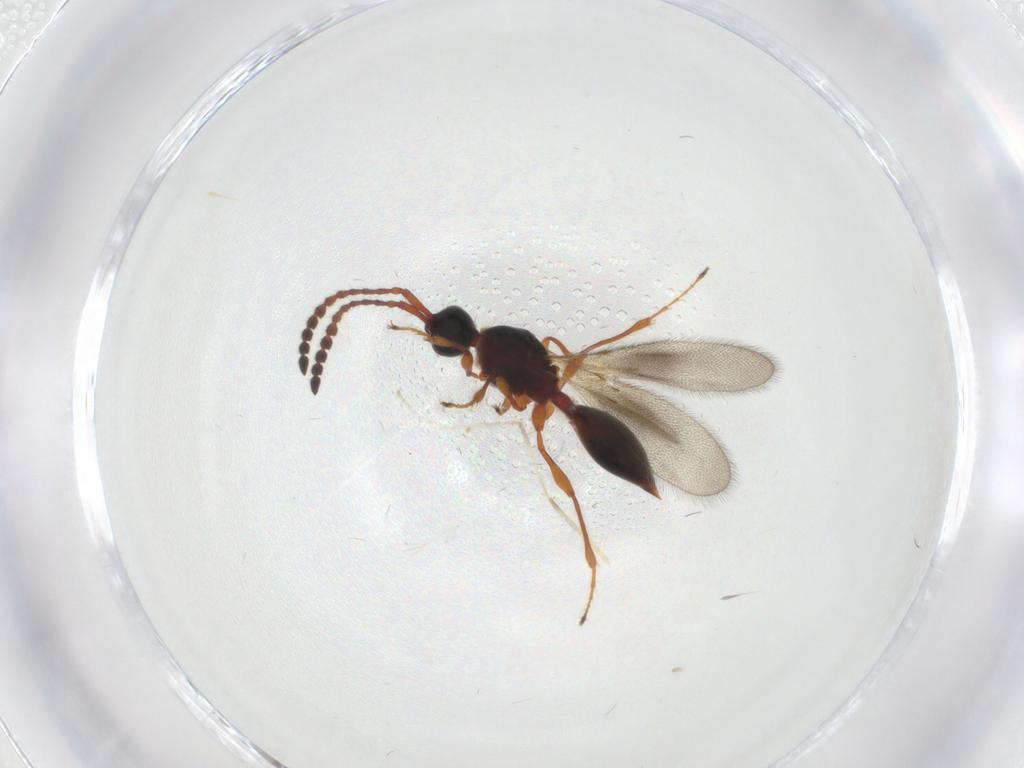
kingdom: Animalia
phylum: Arthropoda
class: Insecta
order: Hymenoptera
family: Diapriidae
